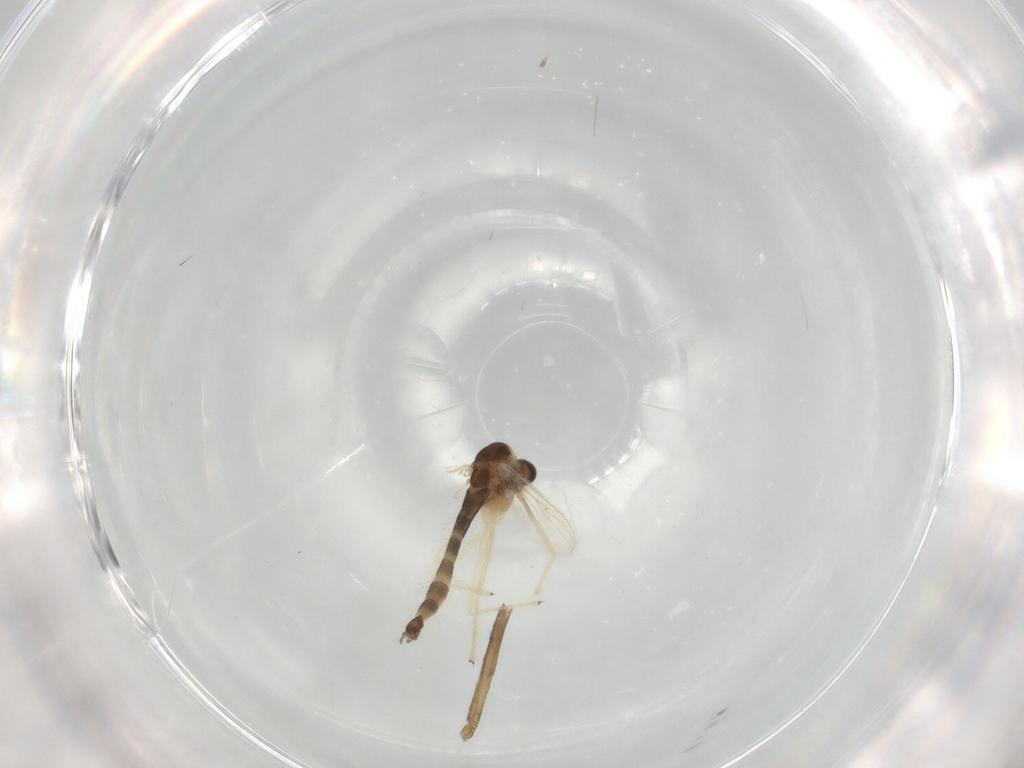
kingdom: Animalia
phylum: Arthropoda
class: Insecta
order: Diptera
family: Chironomidae
